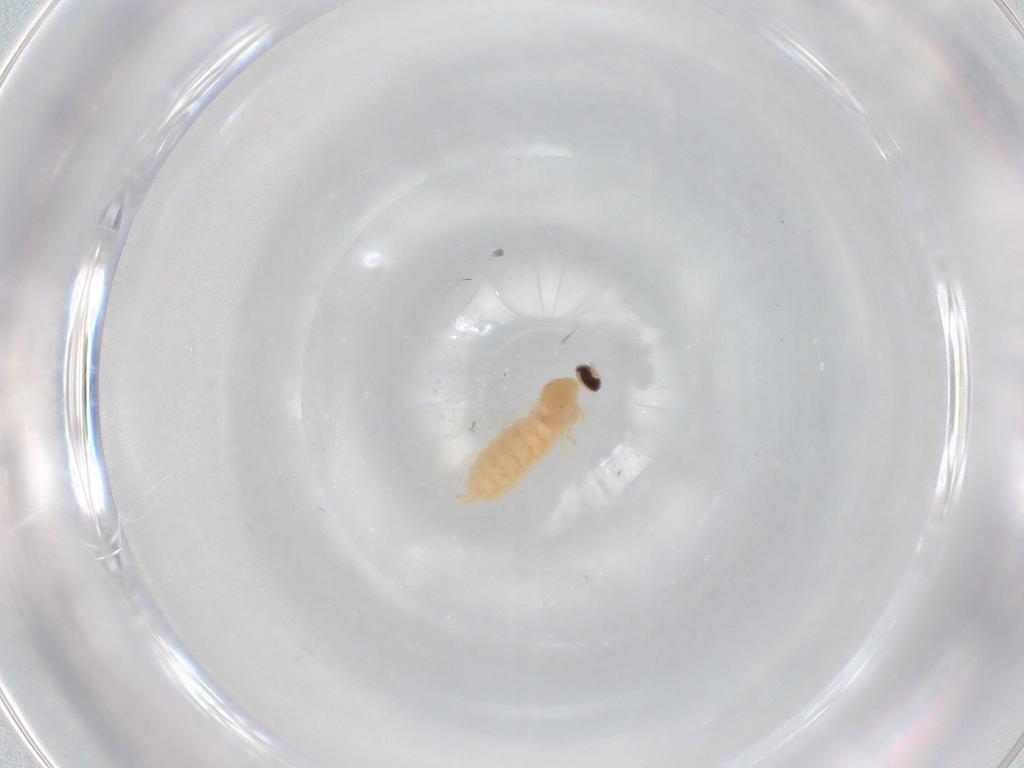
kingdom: Animalia
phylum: Arthropoda
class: Insecta
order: Diptera
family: Cecidomyiidae
